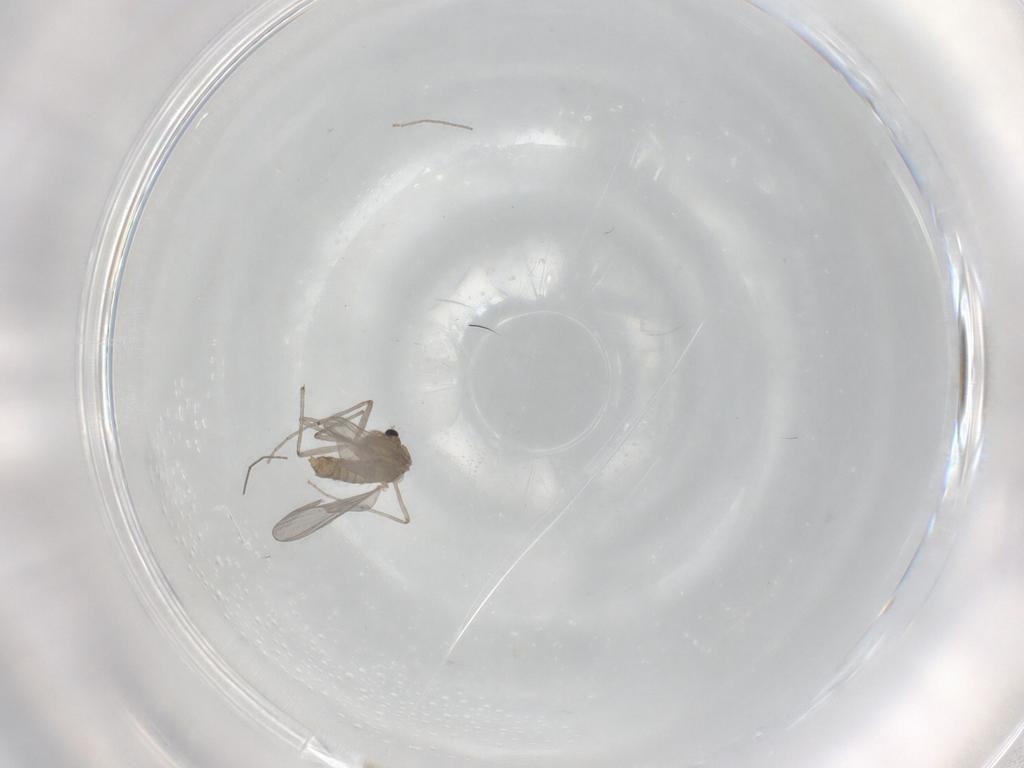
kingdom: Animalia
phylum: Arthropoda
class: Insecta
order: Diptera
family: Chironomidae
